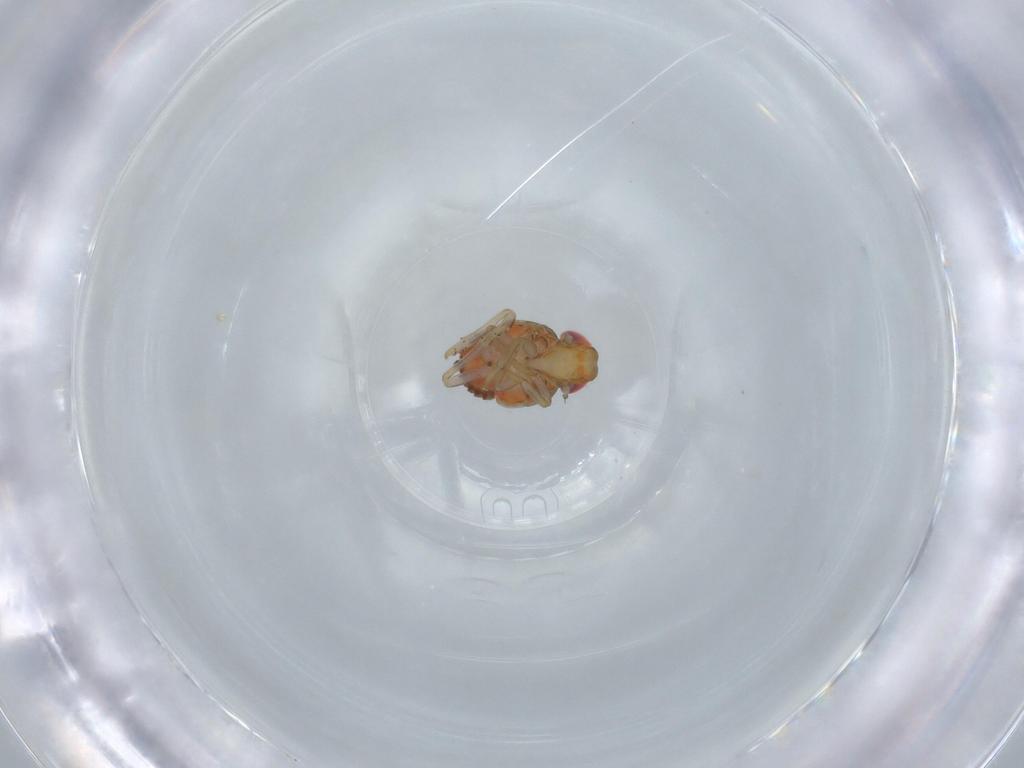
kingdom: Animalia
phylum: Arthropoda
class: Insecta
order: Hemiptera
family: Issidae
